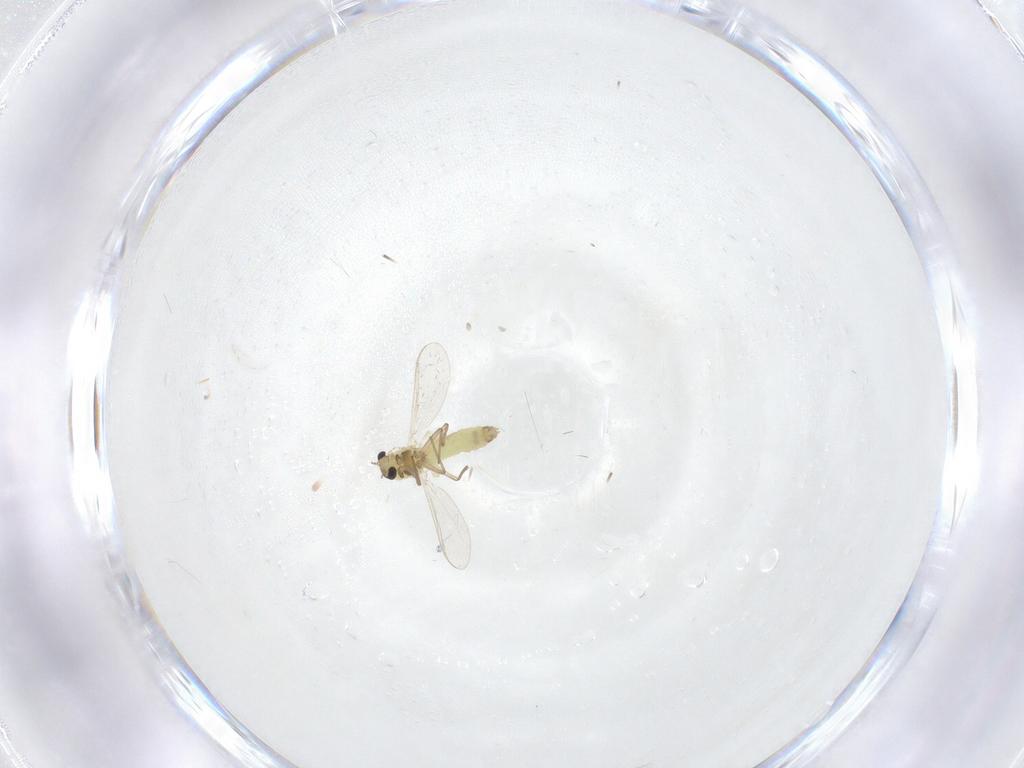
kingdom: Animalia
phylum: Arthropoda
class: Insecta
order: Diptera
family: Chironomidae
